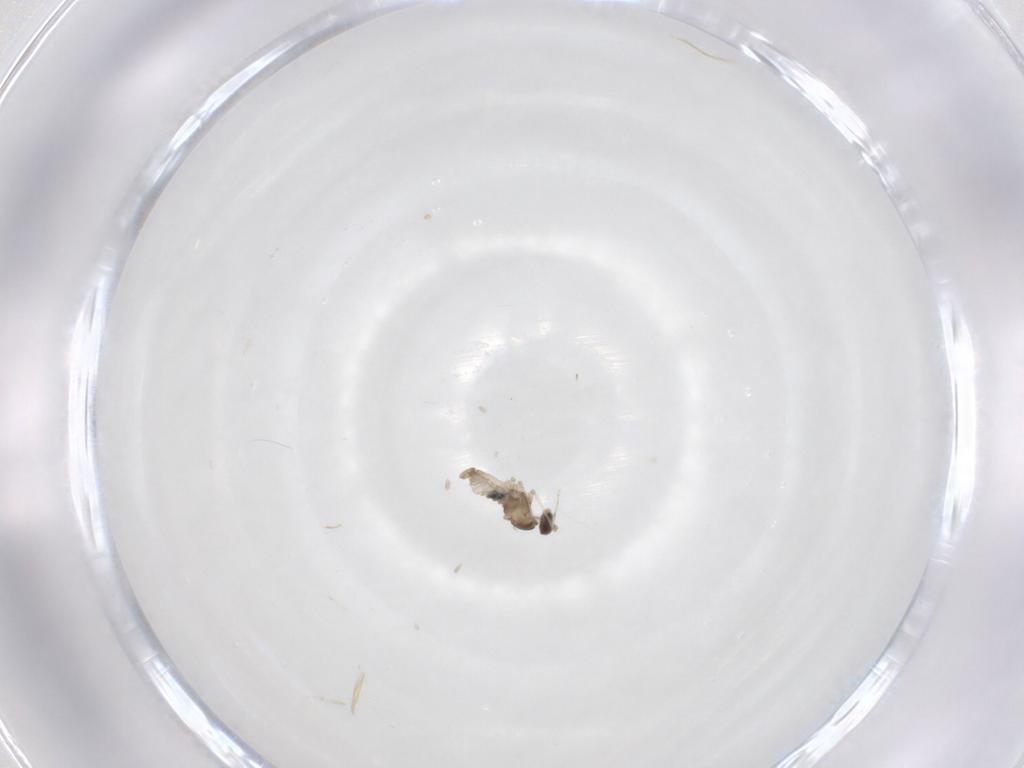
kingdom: Animalia
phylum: Arthropoda
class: Insecta
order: Diptera
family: Cecidomyiidae
